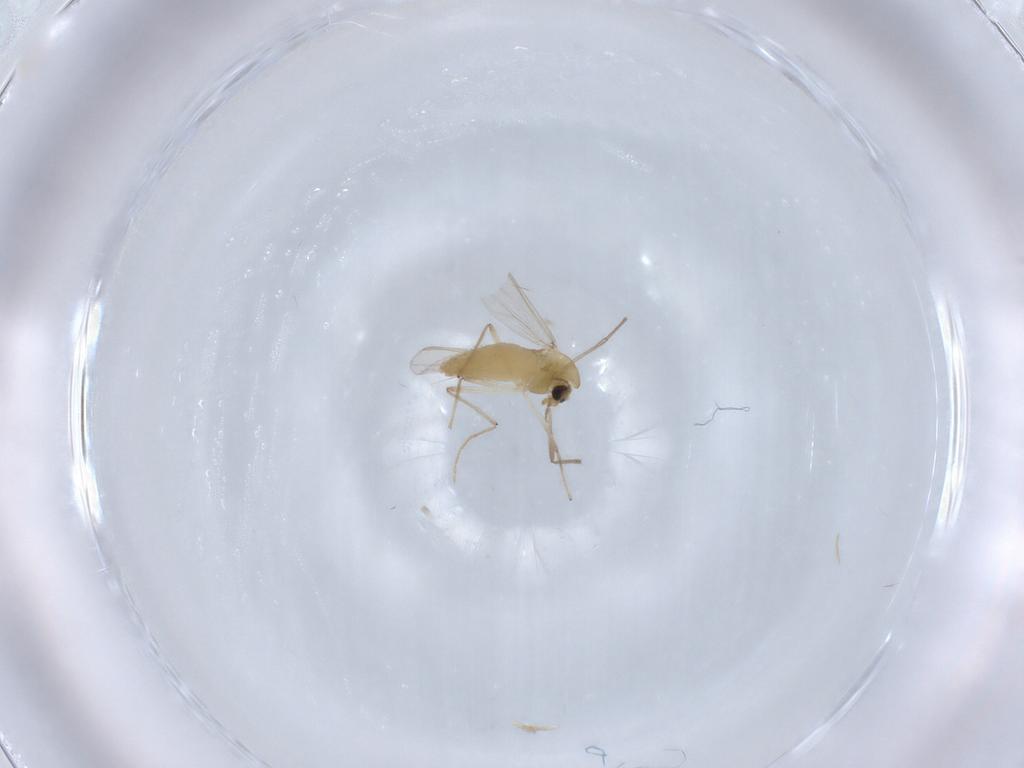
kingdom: Animalia
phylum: Arthropoda
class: Insecta
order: Diptera
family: Chironomidae
